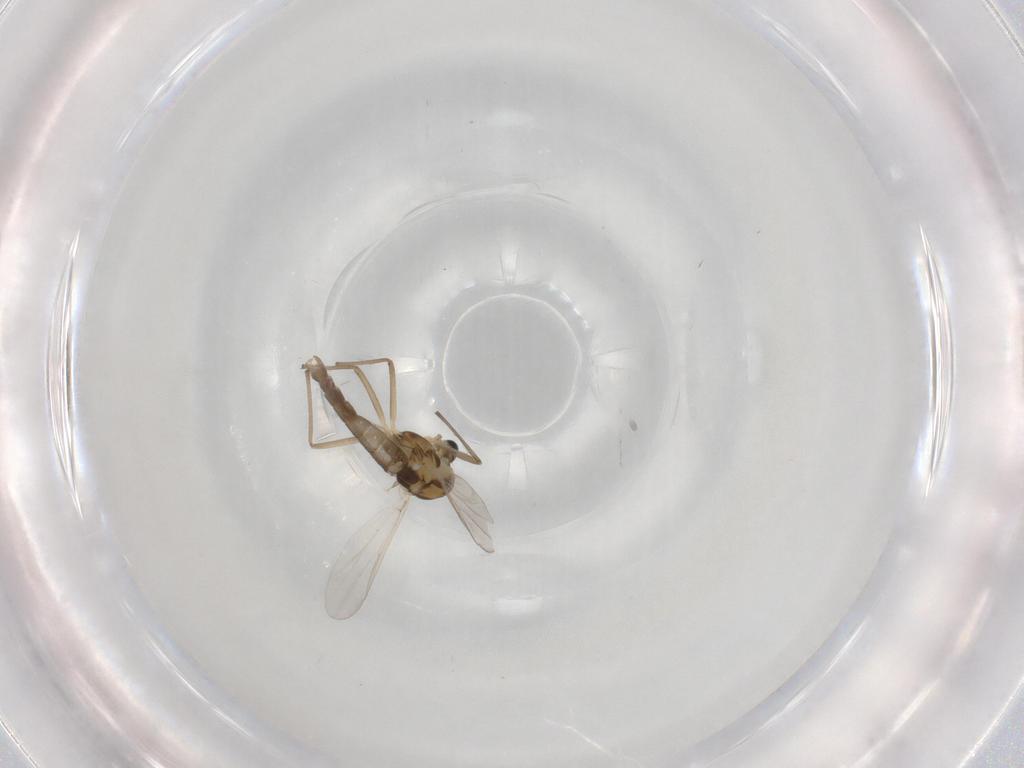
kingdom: Animalia
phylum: Arthropoda
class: Insecta
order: Diptera
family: Chironomidae
